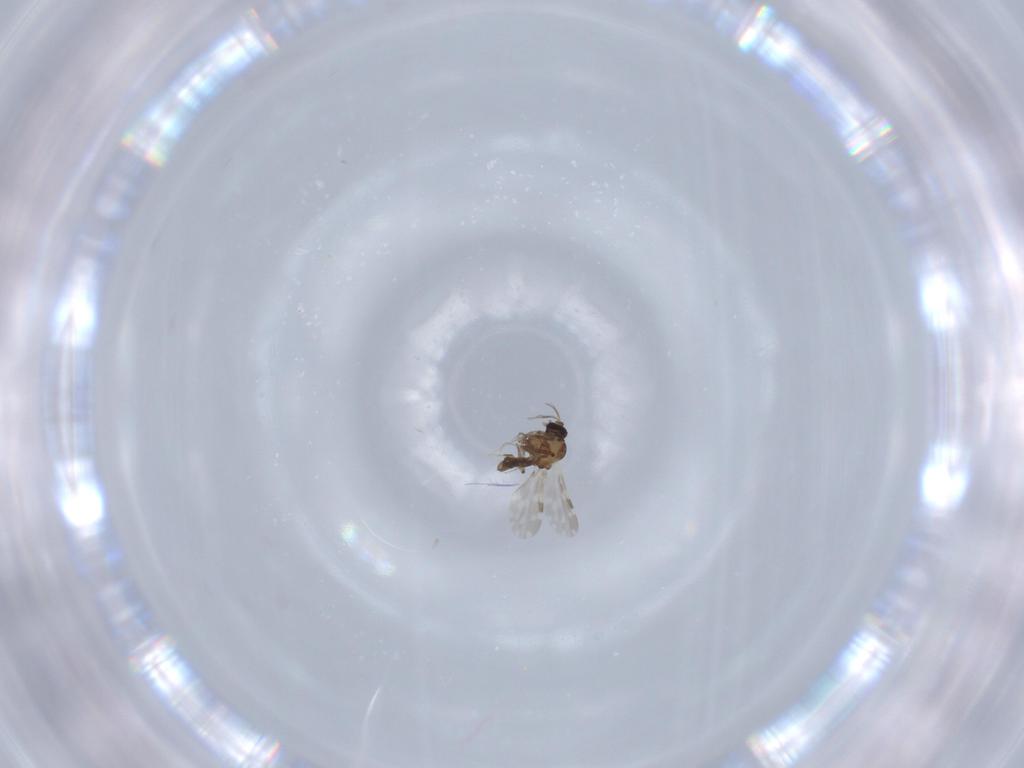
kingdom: Animalia
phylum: Arthropoda
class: Insecta
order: Diptera
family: Ceratopogonidae
